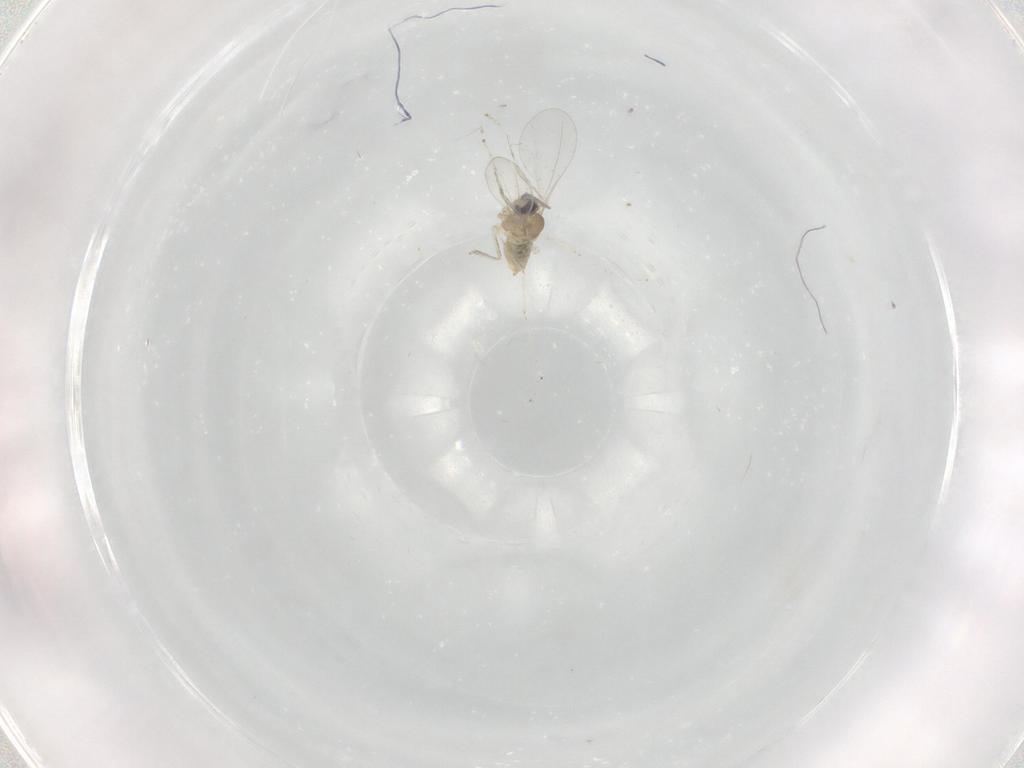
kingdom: Animalia
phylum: Arthropoda
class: Insecta
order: Diptera
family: Cecidomyiidae
